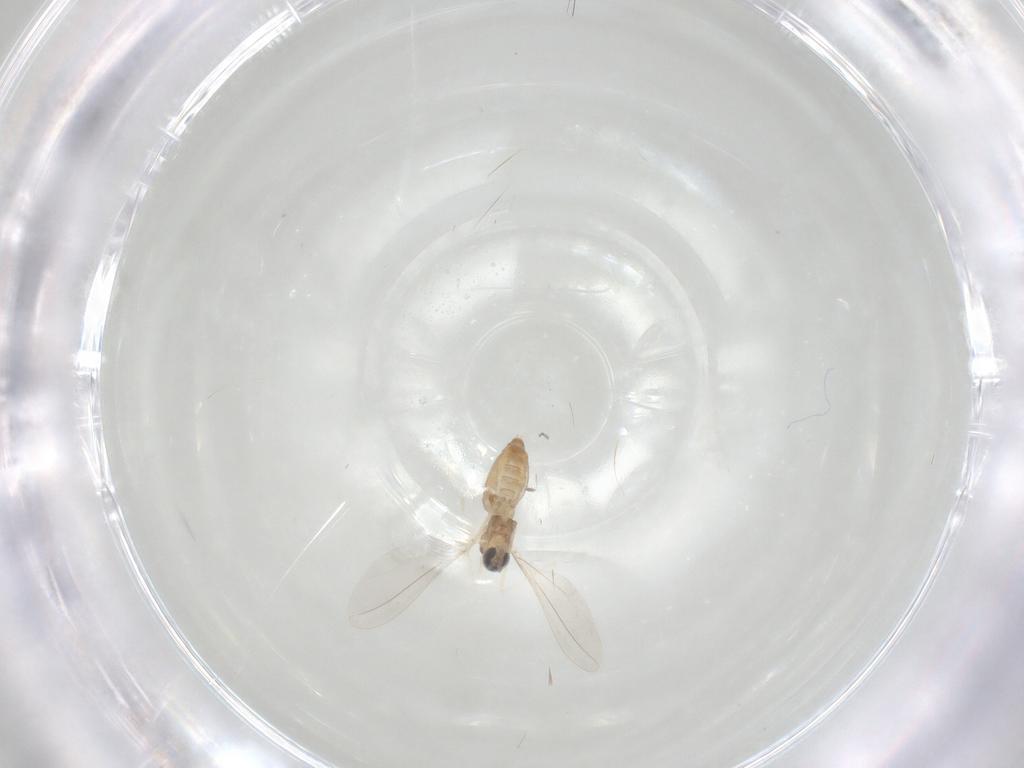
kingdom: Animalia
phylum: Arthropoda
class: Insecta
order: Diptera
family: Cecidomyiidae
